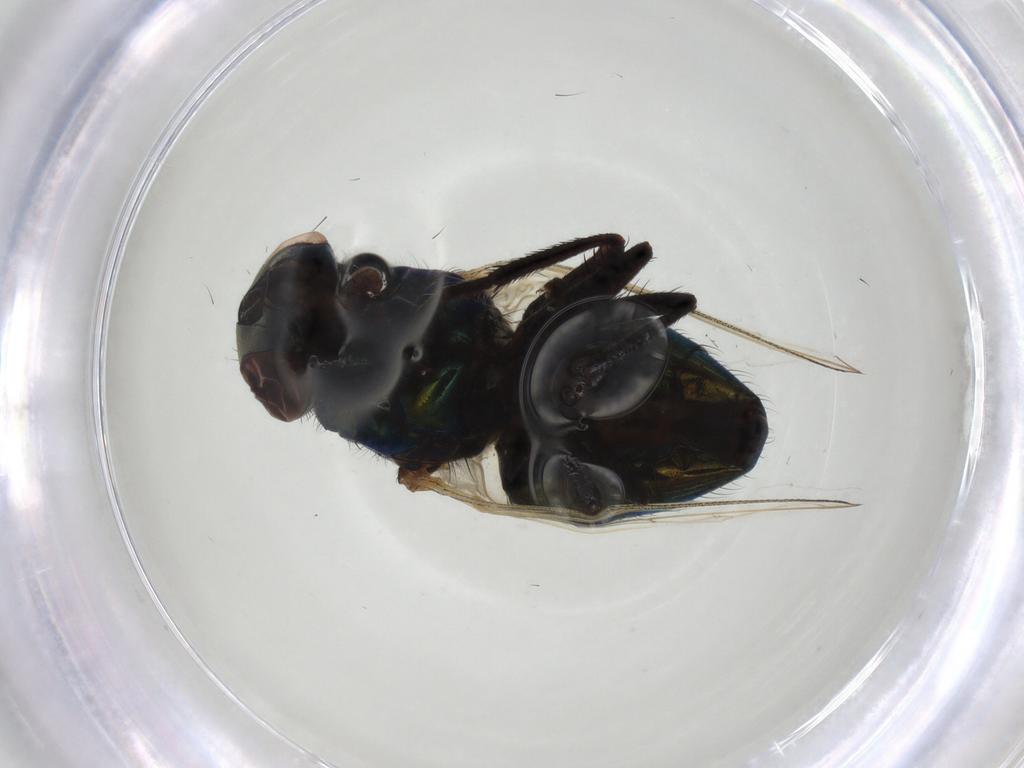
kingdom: Animalia
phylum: Arthropoda
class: Insecta
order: Diptera
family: Muscidae
